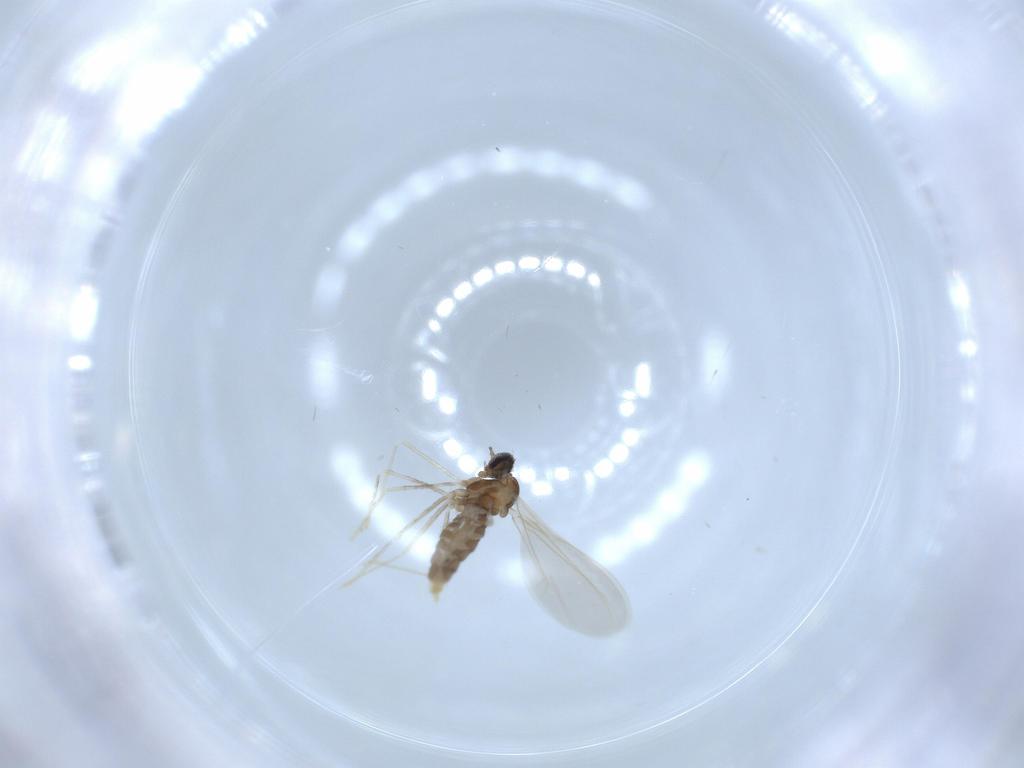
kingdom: Animalia
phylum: Arthropoda
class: Insecta
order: Diptera
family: Cecidomyiidae
